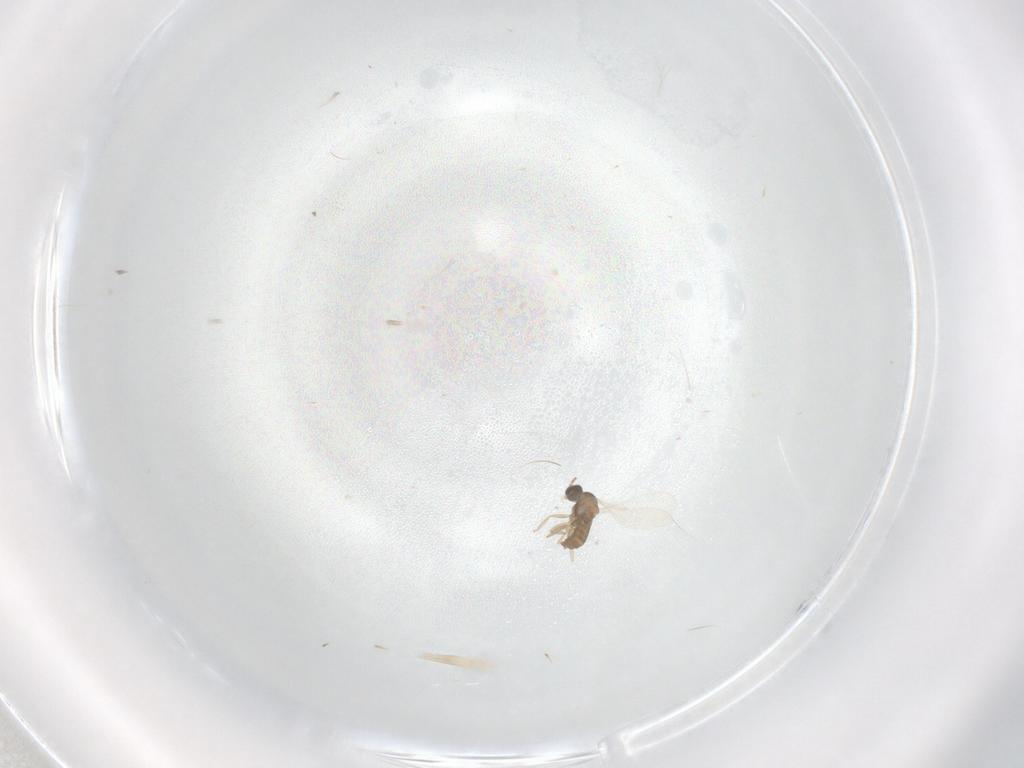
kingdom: Animalia
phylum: Arthropoda
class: Insecta
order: Diptera
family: Cecidomyiidae
